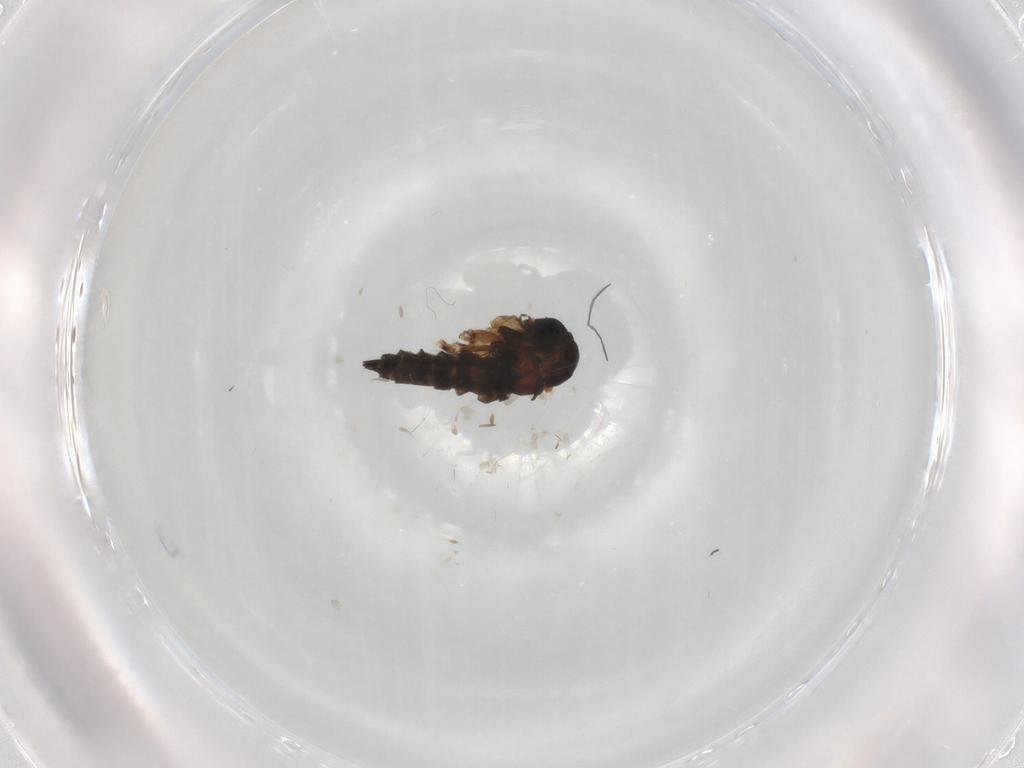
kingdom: Animalia
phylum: Arthropoda
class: Insecta
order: Diptera
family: Sciaridae
